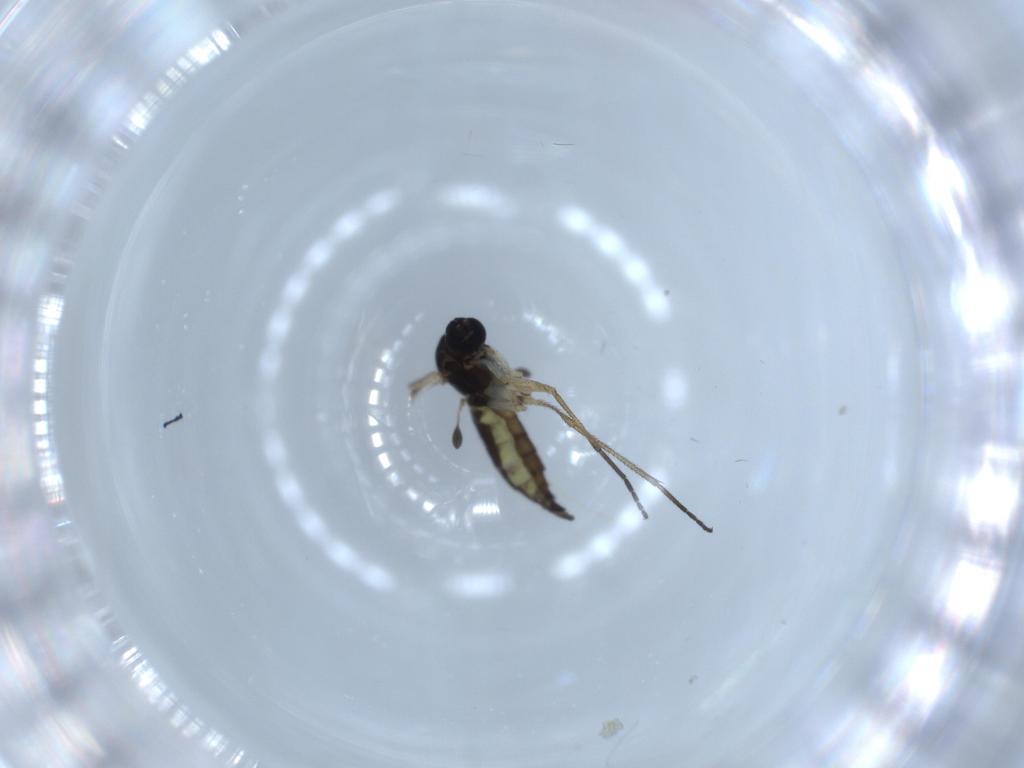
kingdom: Animalia
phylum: Arthropoda
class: Insecta
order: Diptera
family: Sciaridae
